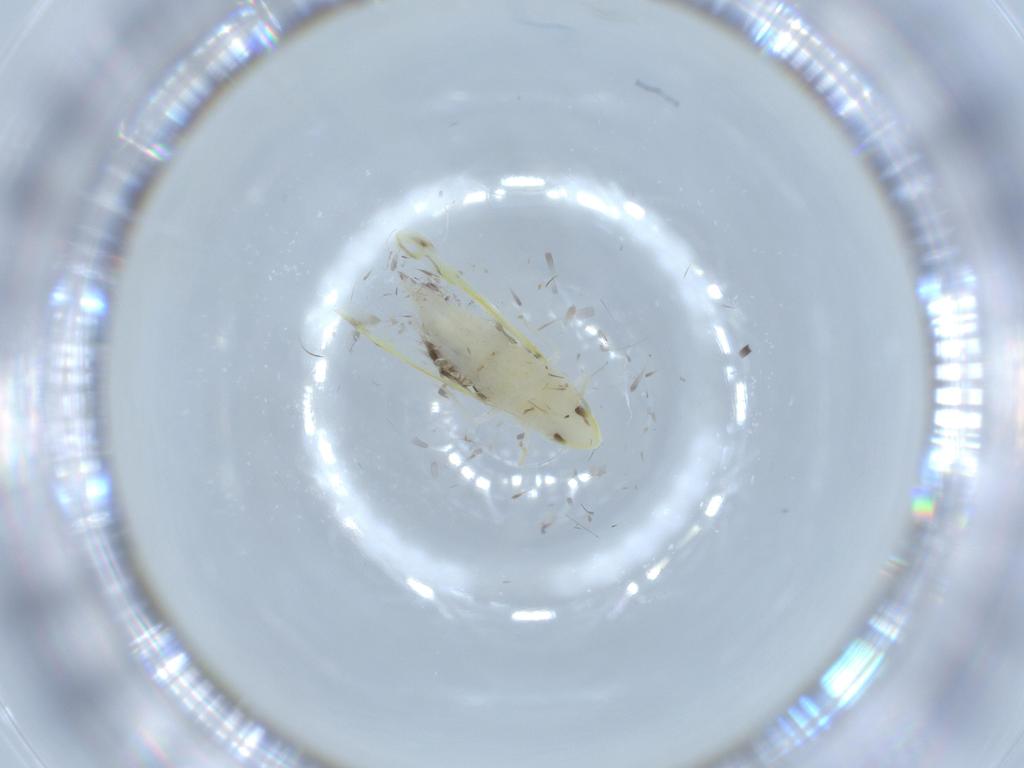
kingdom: Animalia
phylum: Arthropoda
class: Insecta
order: Hemiptera
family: Cicadellidae
